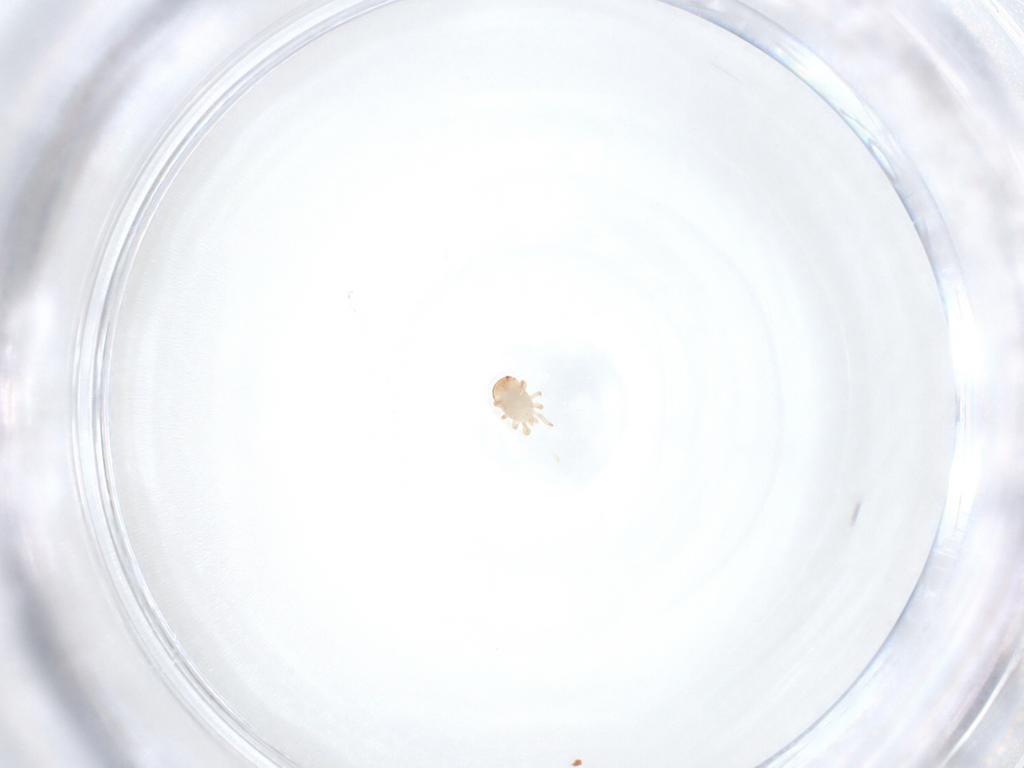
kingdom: Animalia
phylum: Arthropoda
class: Arachnida
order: Mesostigmata
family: Zerconidae
